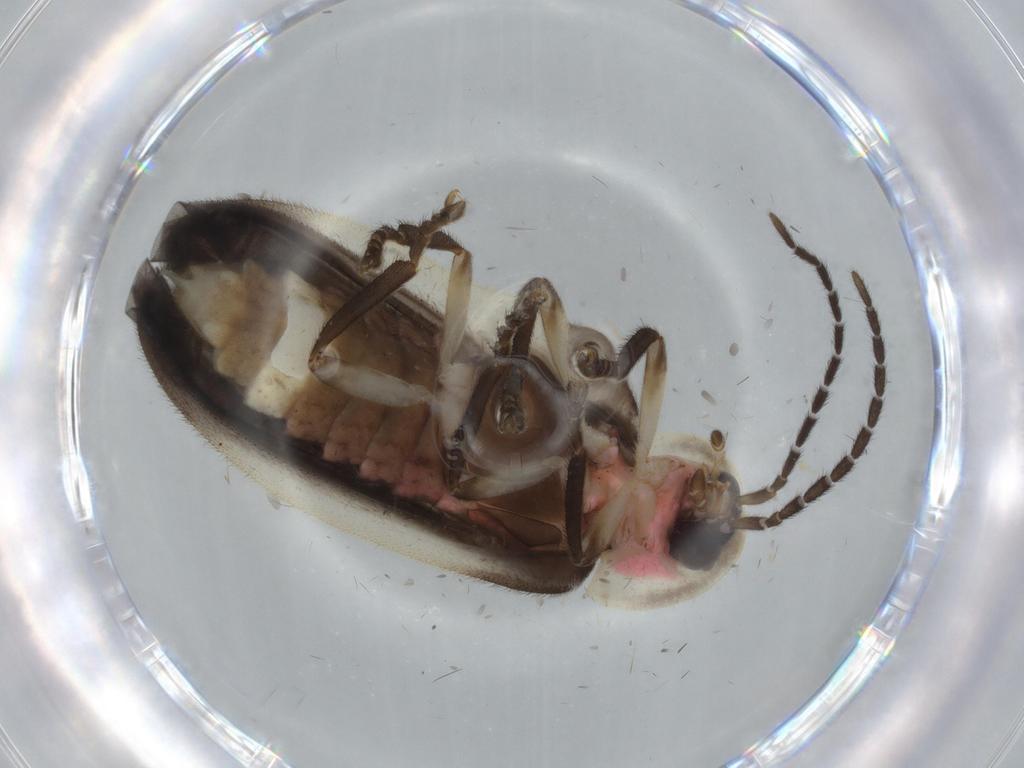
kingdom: Animalia
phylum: Arthropoda
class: Insecta
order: Coleoptera
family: Lampyridae
